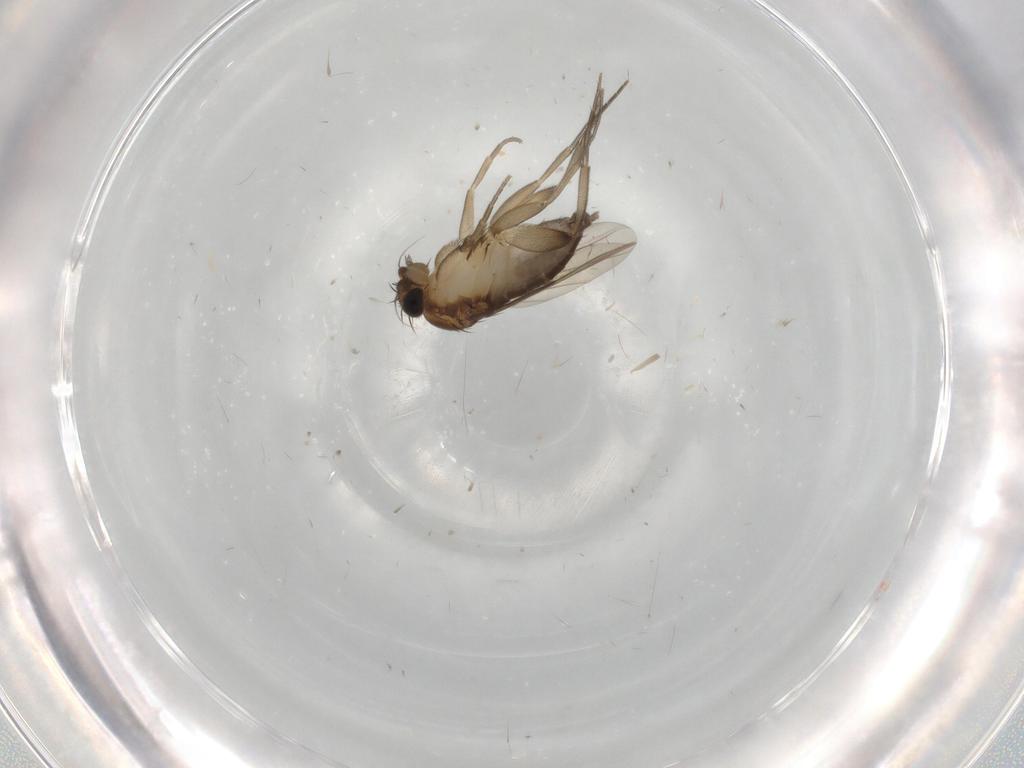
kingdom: Animalia
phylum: Arthropoda
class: Insecta
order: Diptera
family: Phoridae
